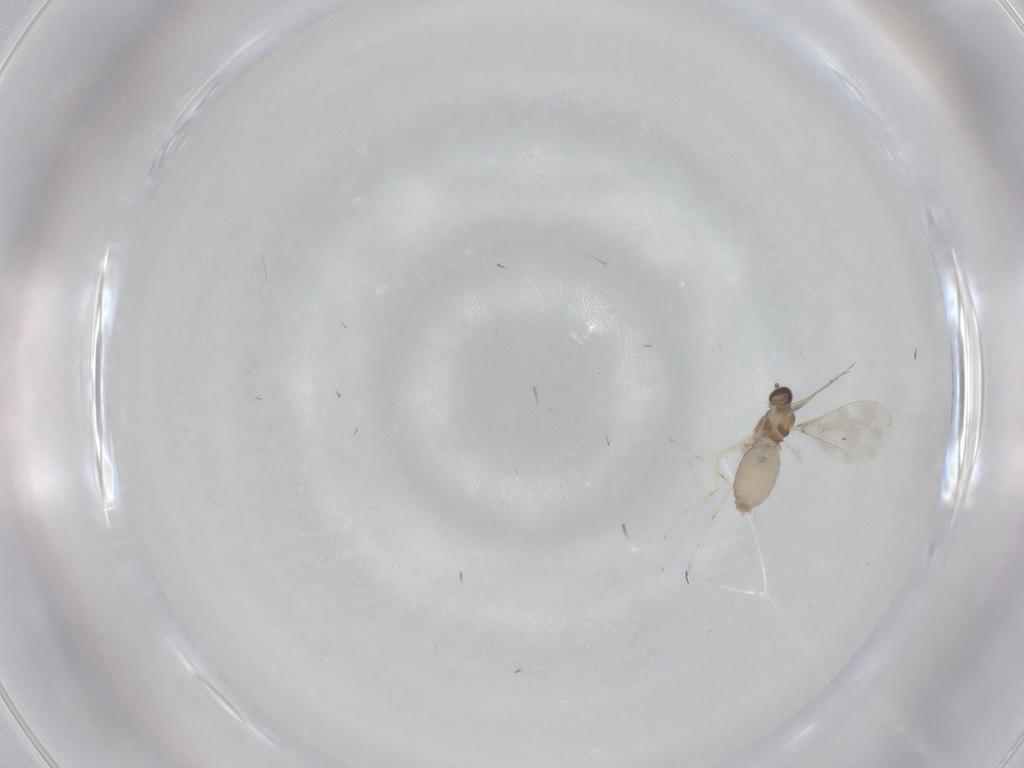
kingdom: Animalia
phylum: Arthropoda
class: Insecta
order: Diptera
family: Cecidomyiidae
